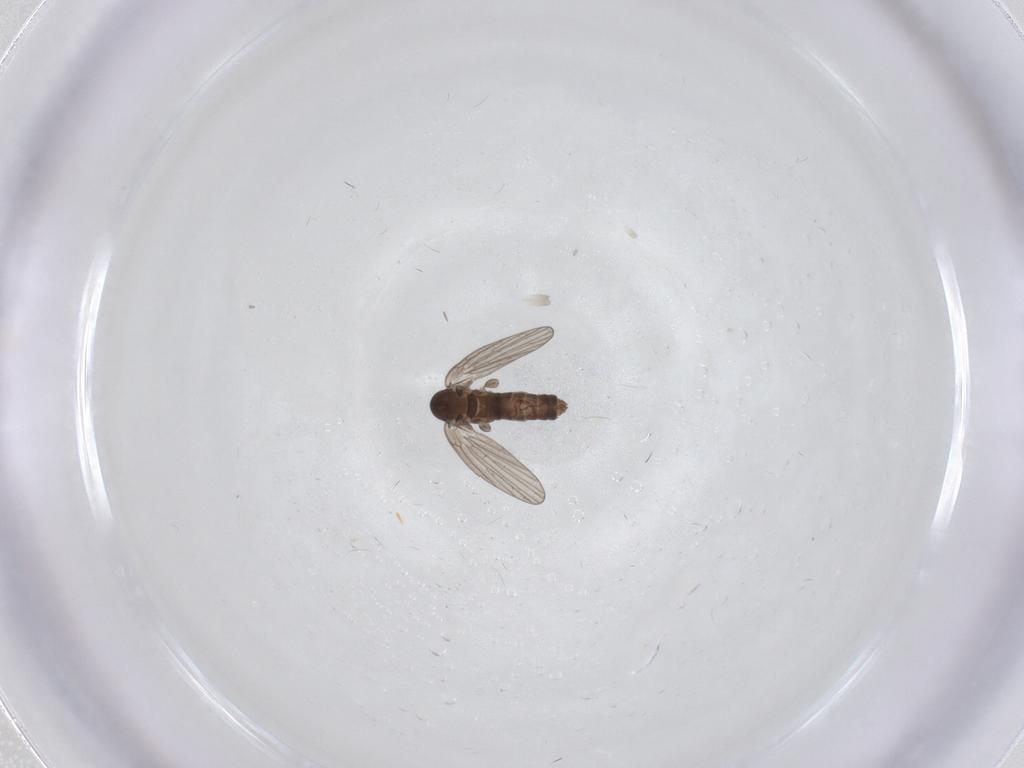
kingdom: Animalia
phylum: Arthropoda
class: Insecta
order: Diptera
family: Psychodidae
